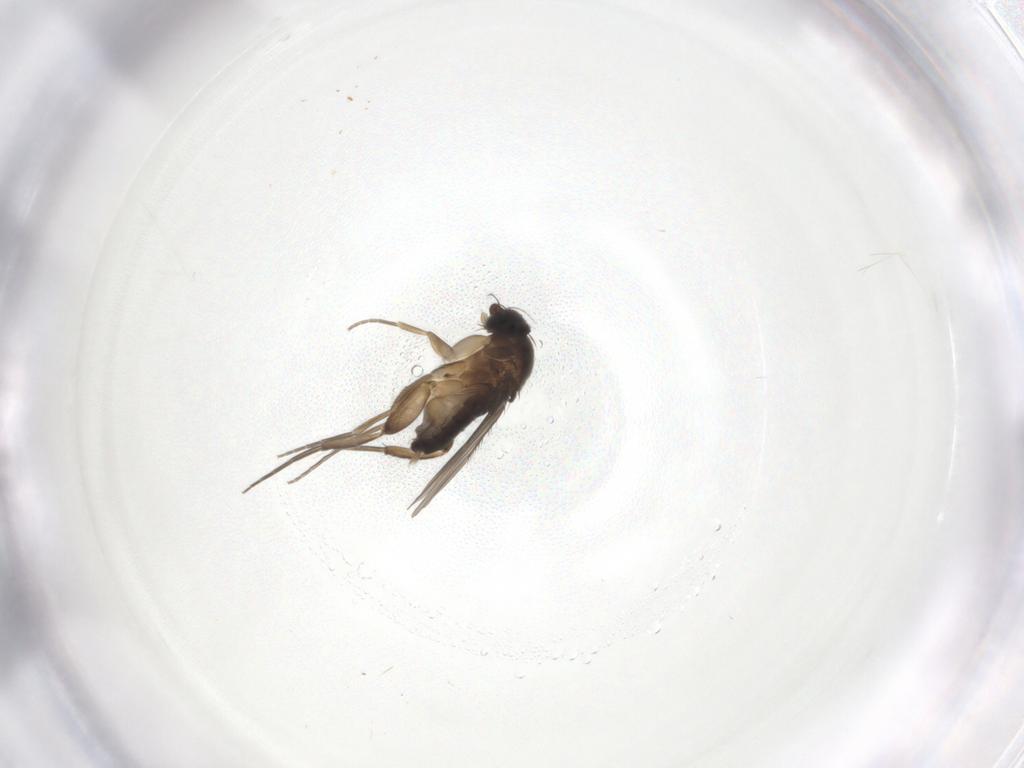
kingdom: Animalia
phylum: Arthropoda
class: Insecta
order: Diptera
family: Phoridae
